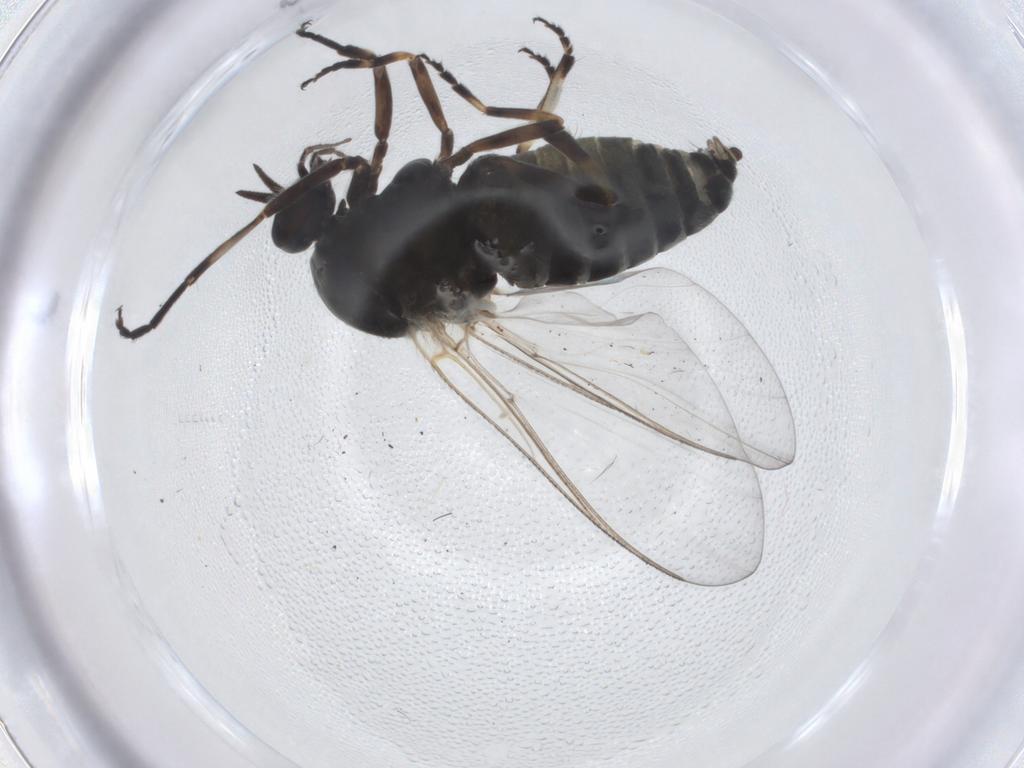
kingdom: Animalia
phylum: Arthropoda
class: Insecta
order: Diptera
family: Simuliidae
